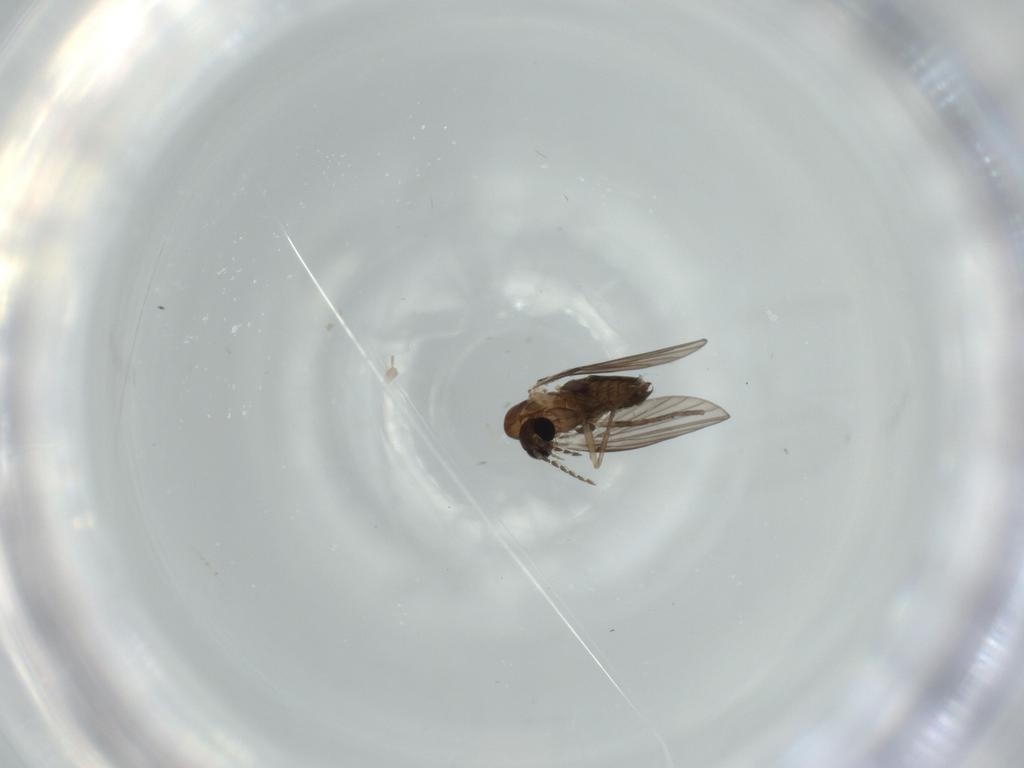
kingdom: Animalia
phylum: Arthropoda
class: Insecta
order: Diptera
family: Psychodidae
